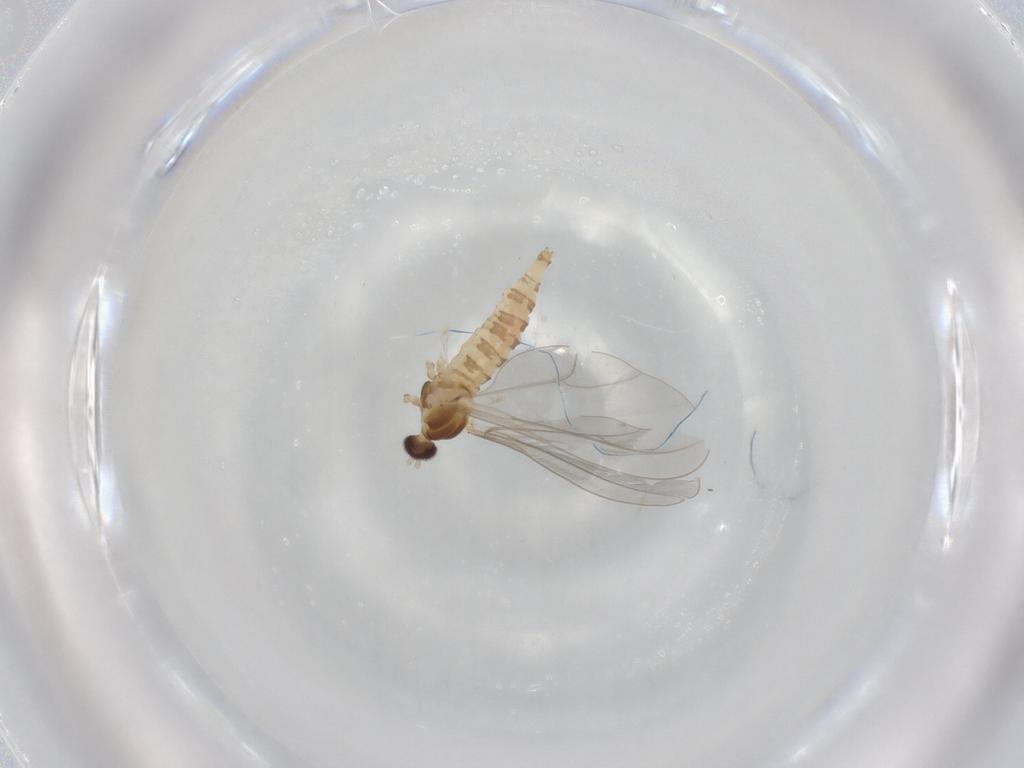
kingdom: Animalia
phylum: Arthropoda
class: Insecta
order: Diptera
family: Cecidomyiidae
